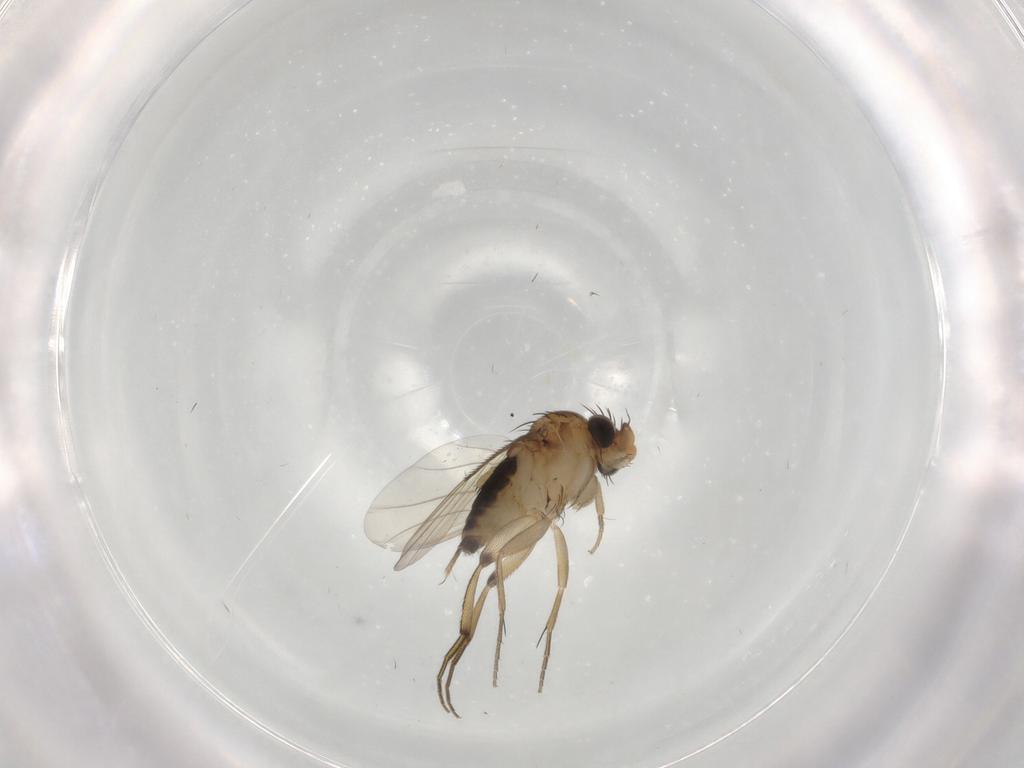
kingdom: Animalia
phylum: Arthropoda
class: Insecta
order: Diptera
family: Phoridae
